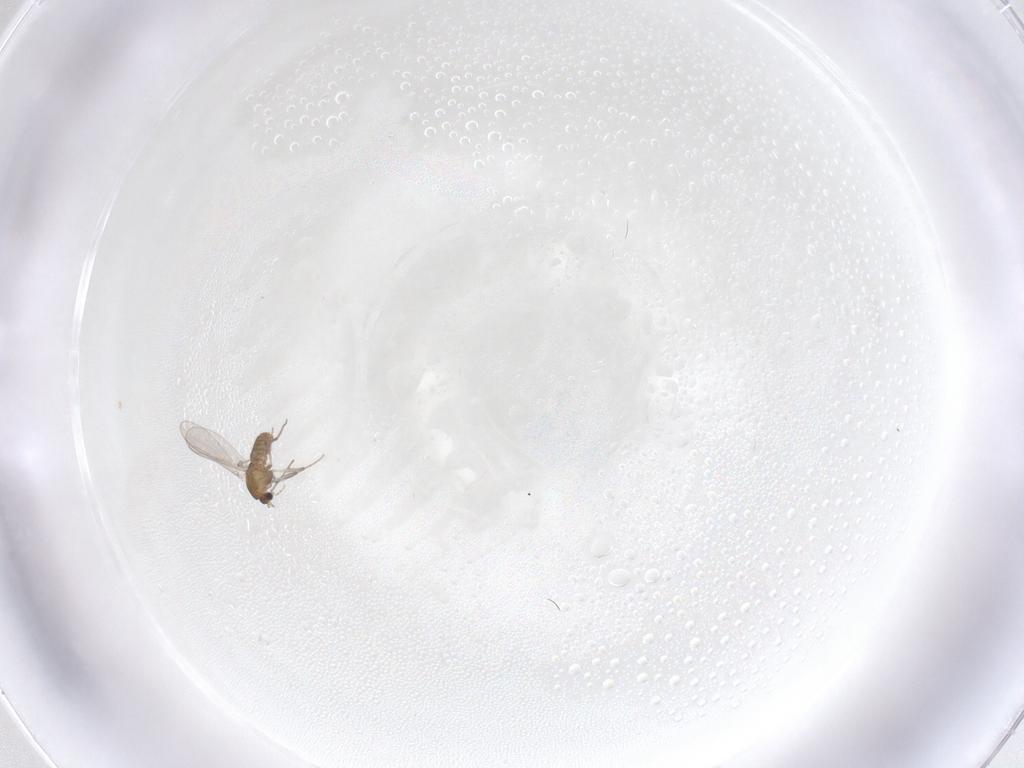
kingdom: Animalia
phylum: Arthropoda
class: Insecta
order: Diptera
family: Chironomidae
